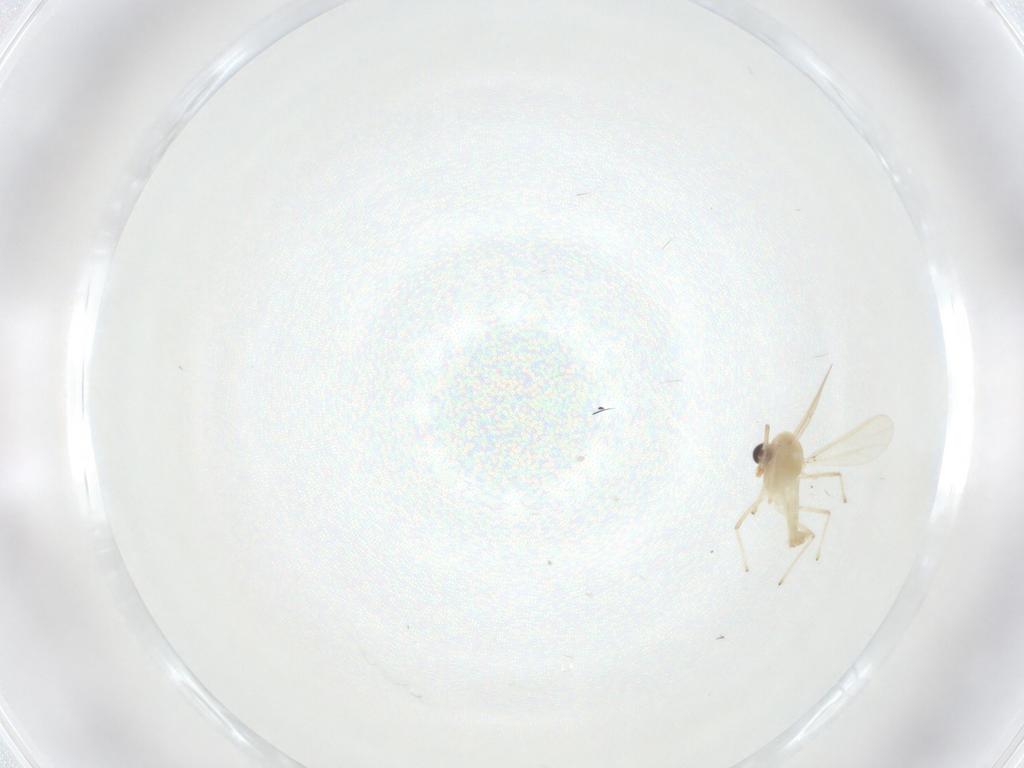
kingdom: Animalia
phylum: Arthropoda
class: Insecta
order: Diptera
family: Chironomidae
